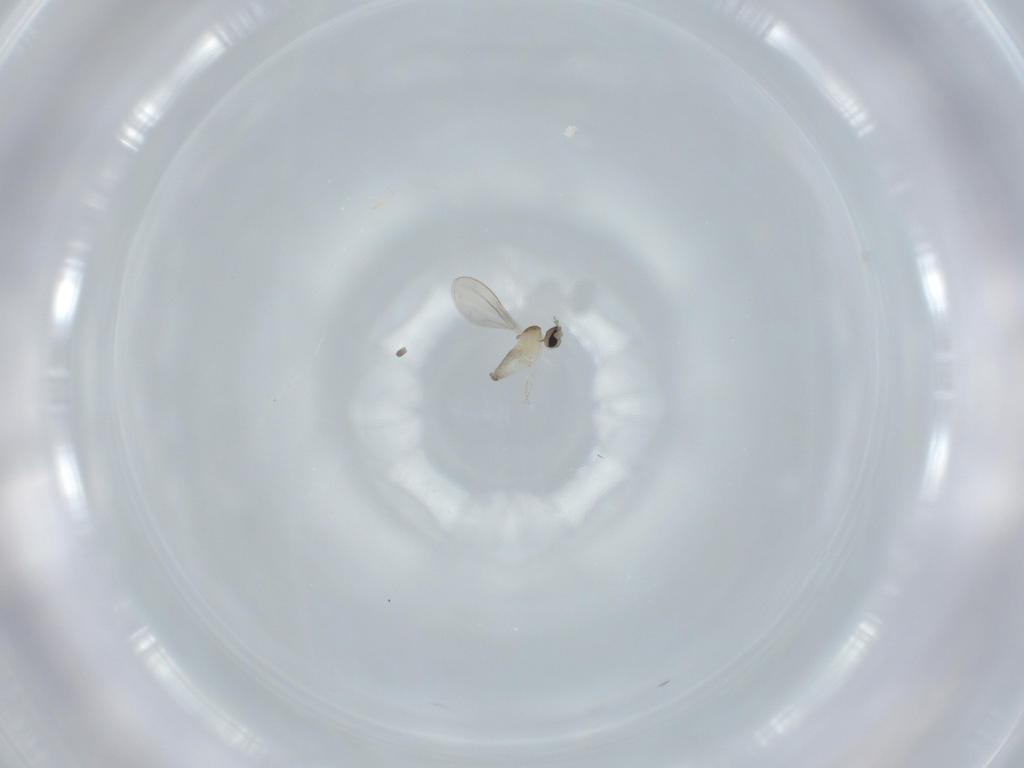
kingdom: Animalia
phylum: Arthropoda
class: Insecta
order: Diptera
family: Cecidomyiidae
